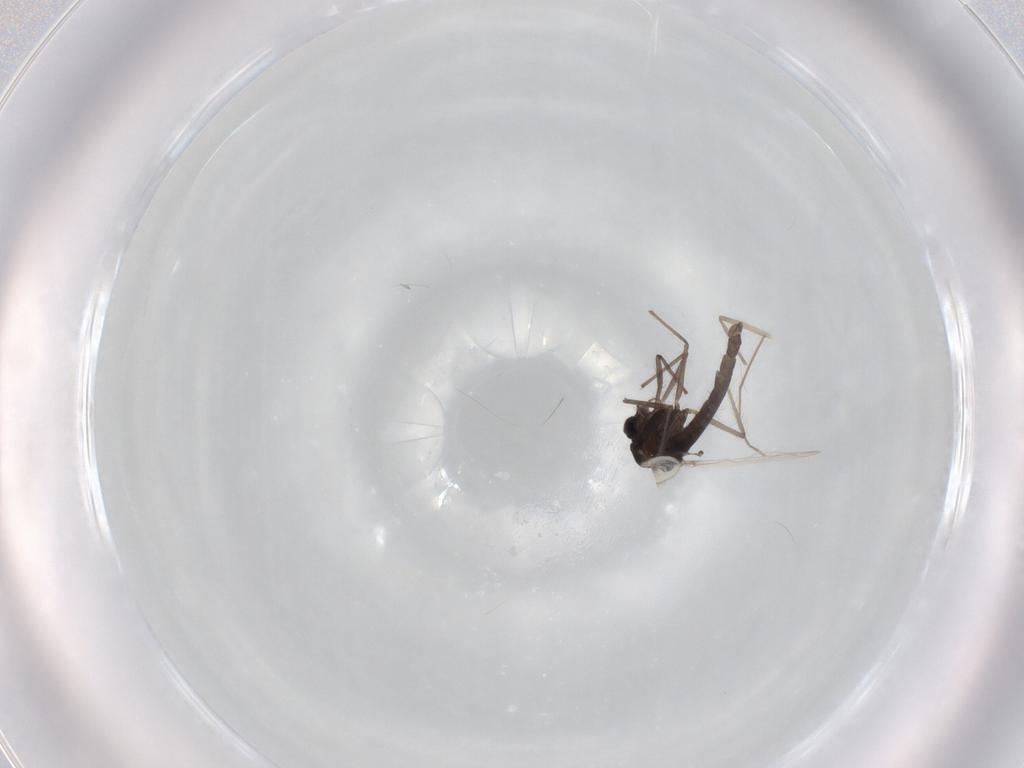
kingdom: Animalia
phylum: Arthropoda
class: Insecta
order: Diptera
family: Chironomidae
